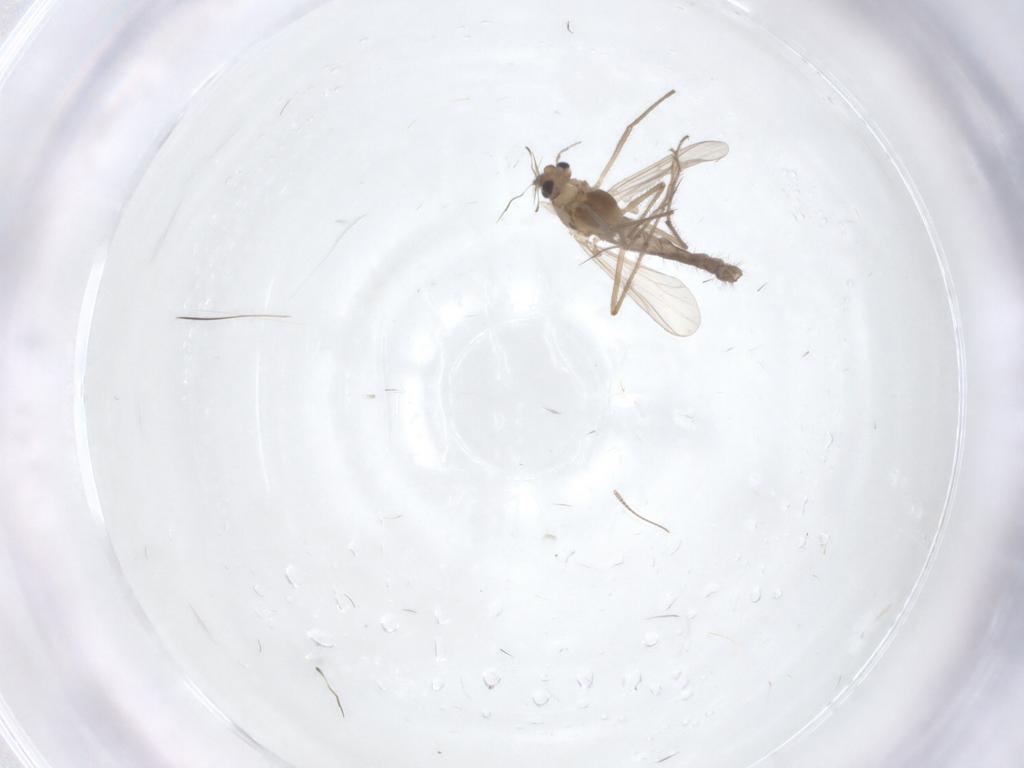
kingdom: Animalia
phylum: Arthropoda
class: Insecta
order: Diptera
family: Chironomidae
